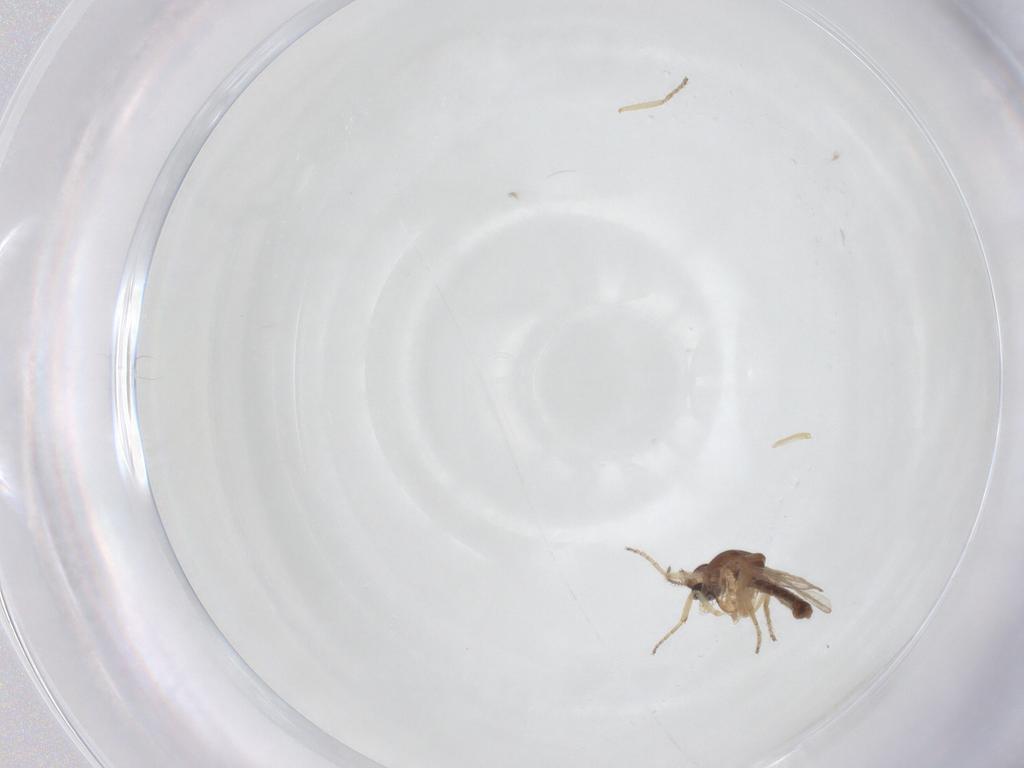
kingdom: Animalia
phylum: Arthropoda
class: Insecta
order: Diptera
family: Ceratopogonidae
